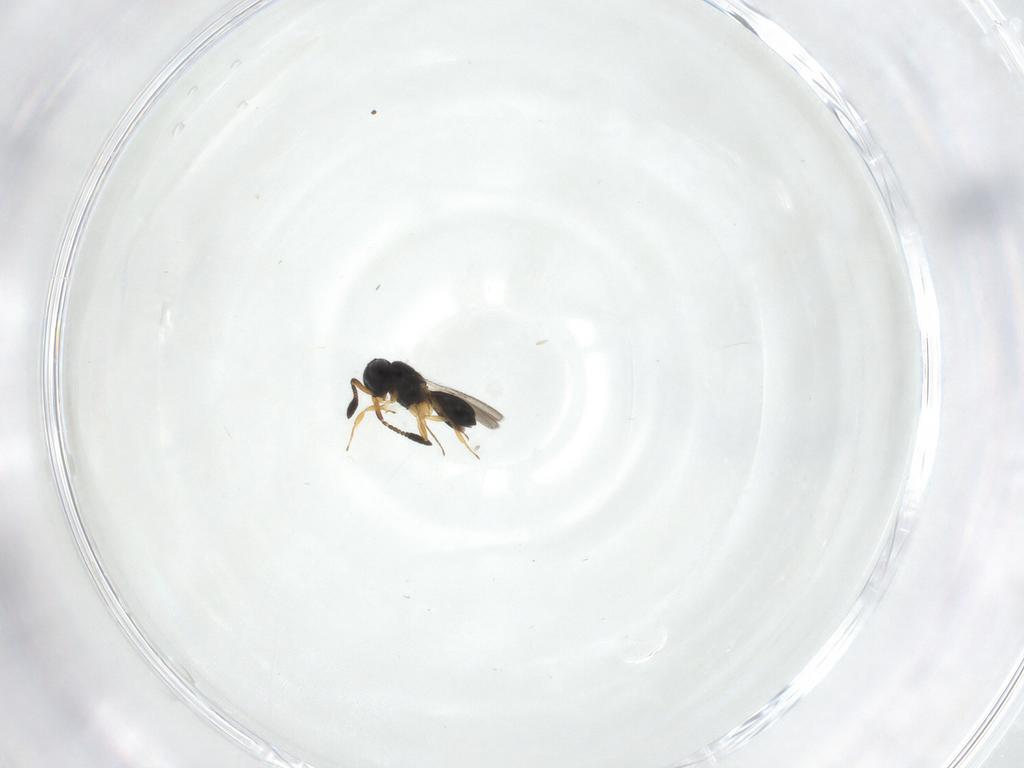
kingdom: Animalia
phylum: Arthropoda
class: Insecta
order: Hymenoptera
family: Scelionidae
